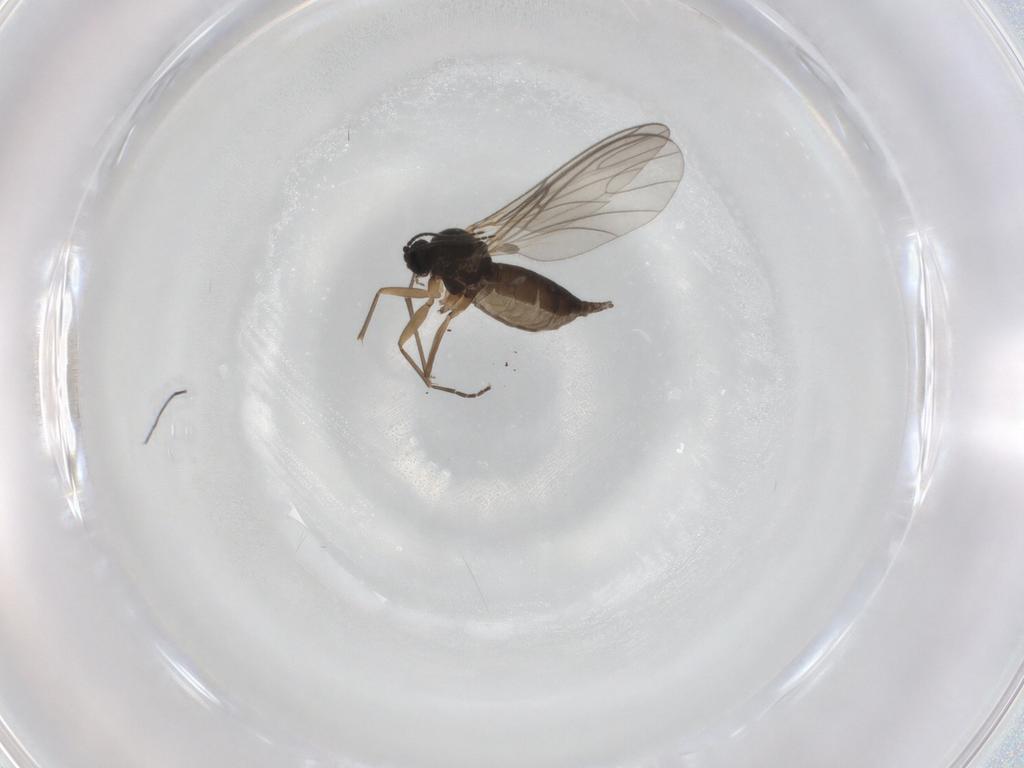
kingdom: Animalia
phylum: Arthropoda
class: Insecta
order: Diptera
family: Sciaridae
